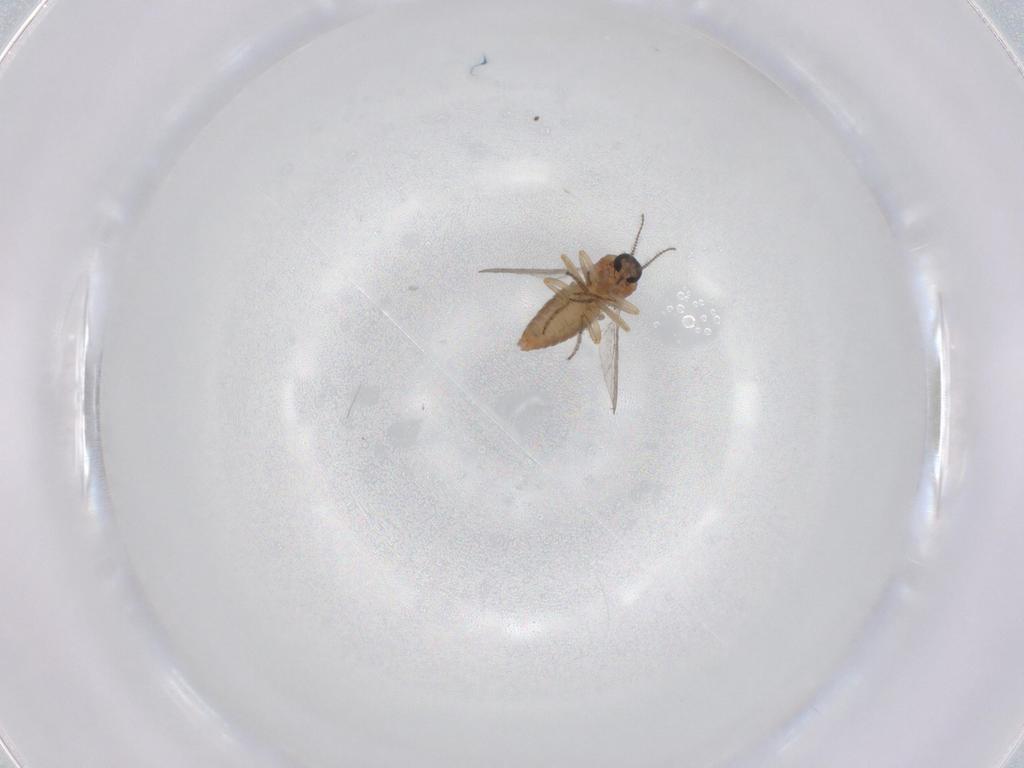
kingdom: Animalia
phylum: Arthropoda
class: Insecta
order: Diptera
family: Ceratopogonidae
